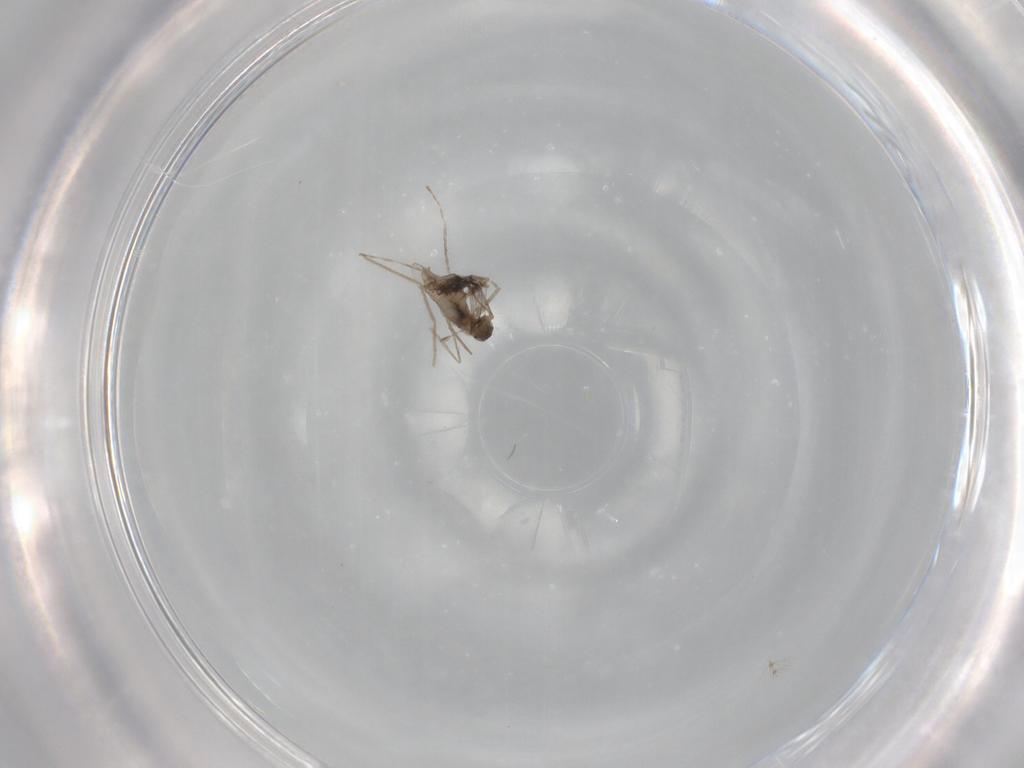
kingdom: Animalia
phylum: Arthropoda
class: Insecta
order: Diptera
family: Cecidomyiidae
